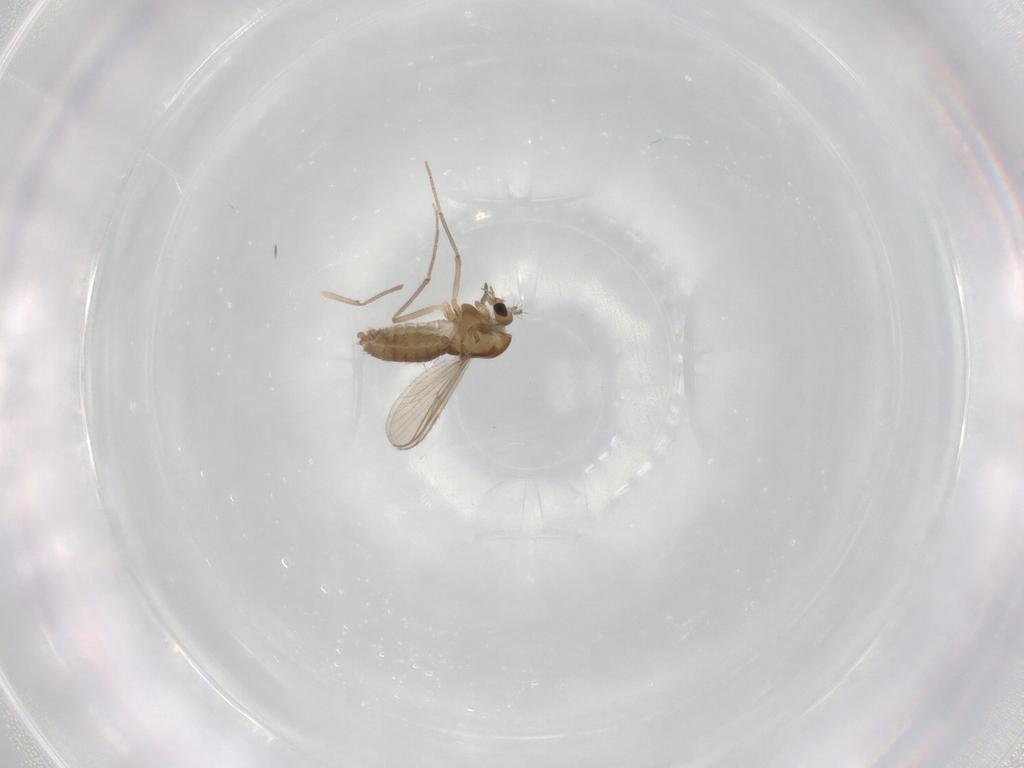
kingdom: Animalia
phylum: Arthropoda
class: Insecta
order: Diptera
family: Chironomidae
